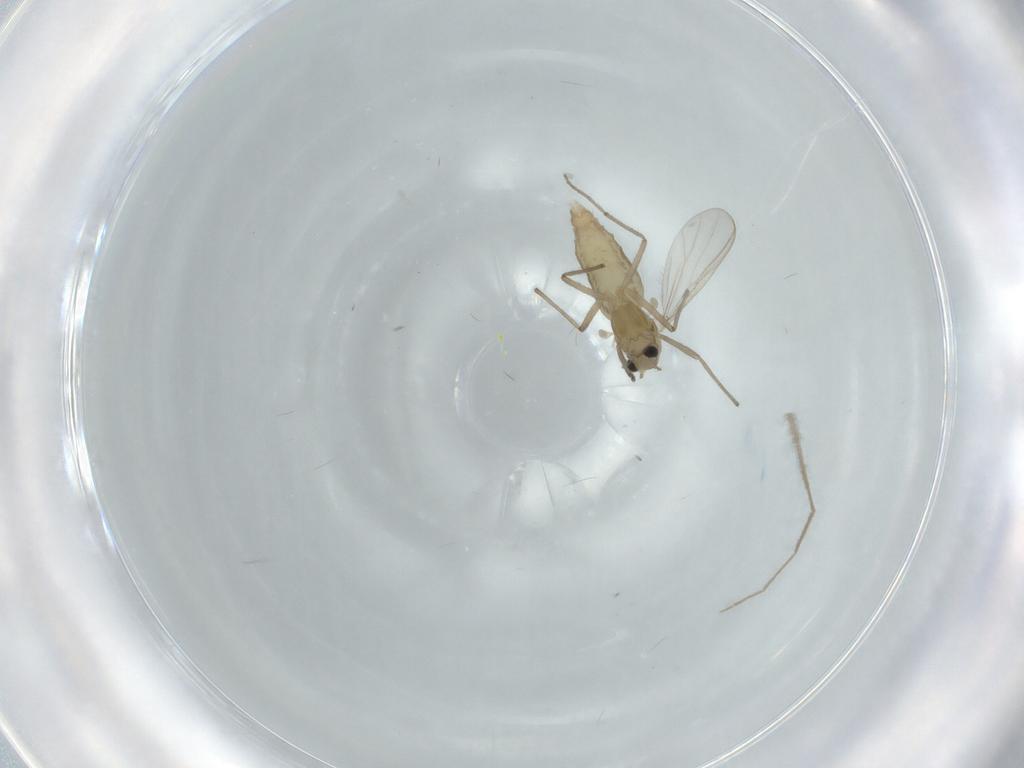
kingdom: Animalia
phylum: Arthropoda
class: Insecta
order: Diptera
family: Chironomidae
